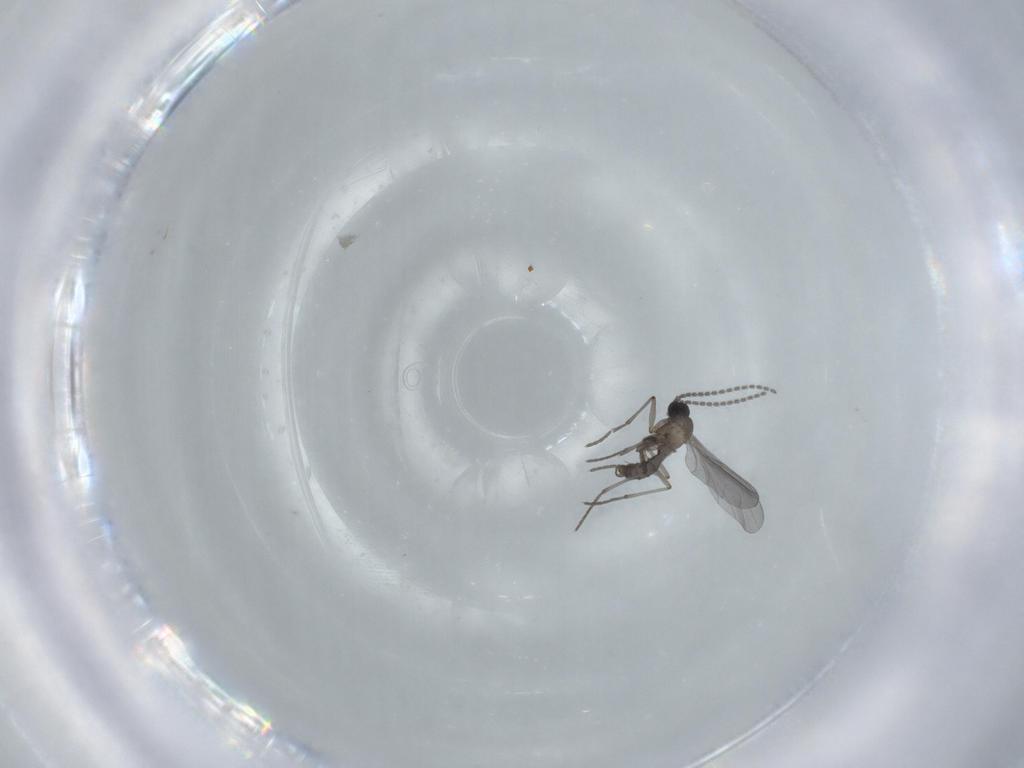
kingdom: Animalia
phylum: Arthropoda
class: Insecta
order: Diptera
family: Sciaridae
